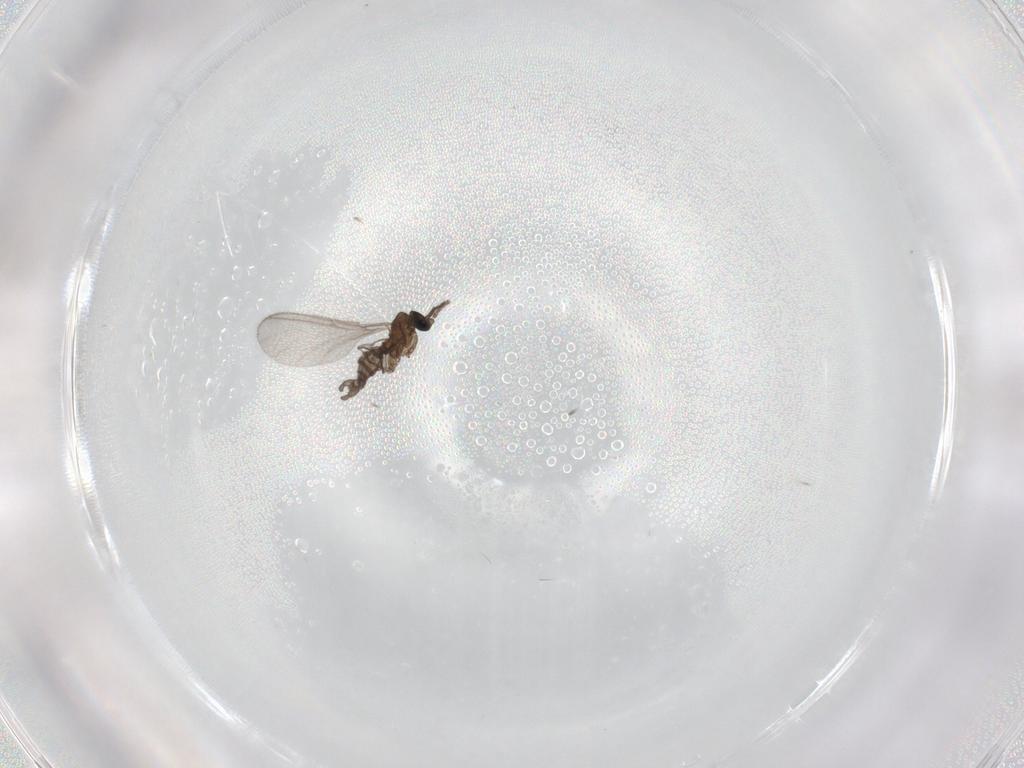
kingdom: Animalia
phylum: Arthropoda
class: Insecta
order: Diptera
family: Sciaridae
